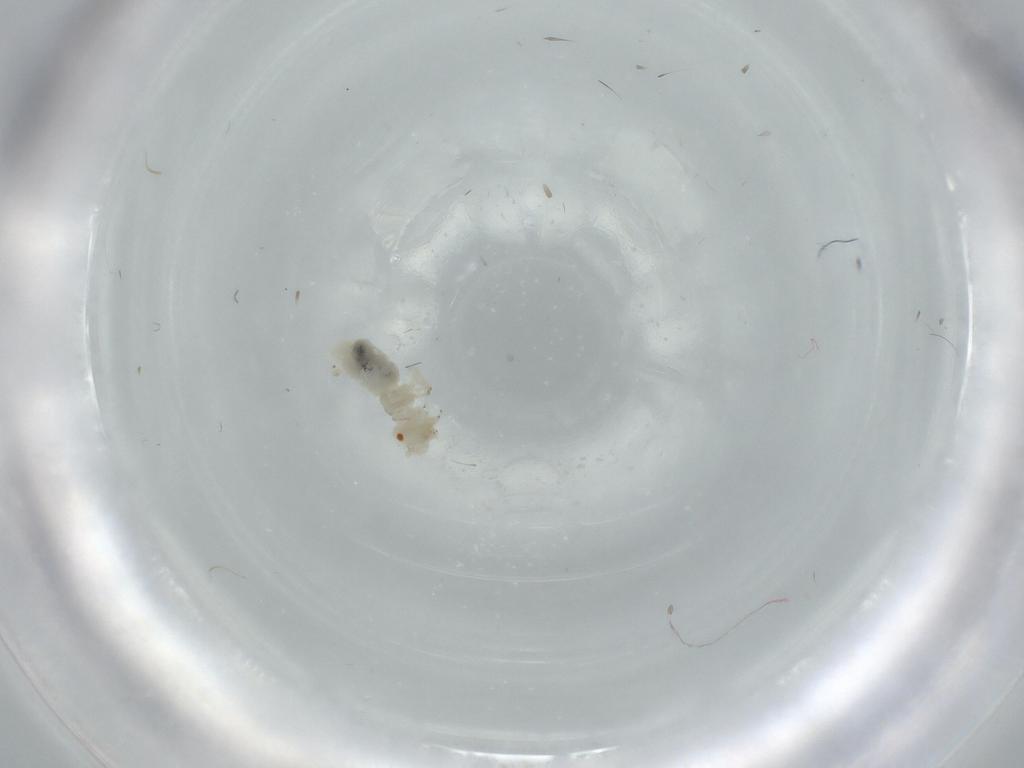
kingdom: Animalia
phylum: Arthropoda
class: Insecta
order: Psocodea
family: Caeciliusidae
